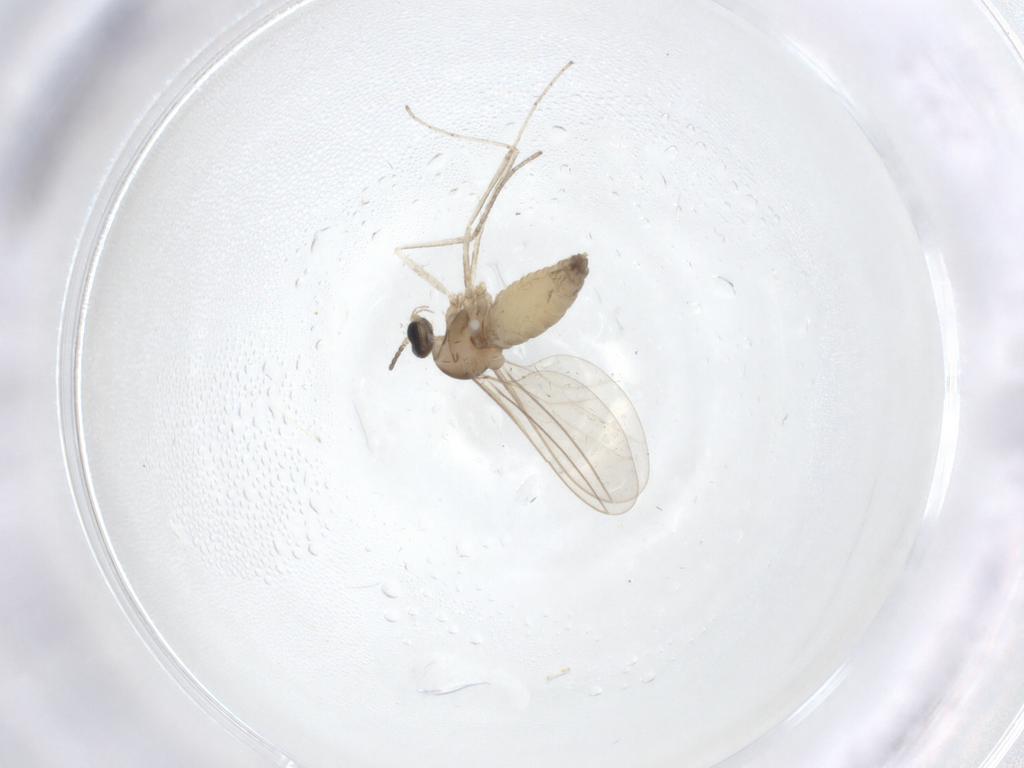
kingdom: Animalia
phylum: Arthropoda
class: Insecta
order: Diptera
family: Cecidomyiidae
